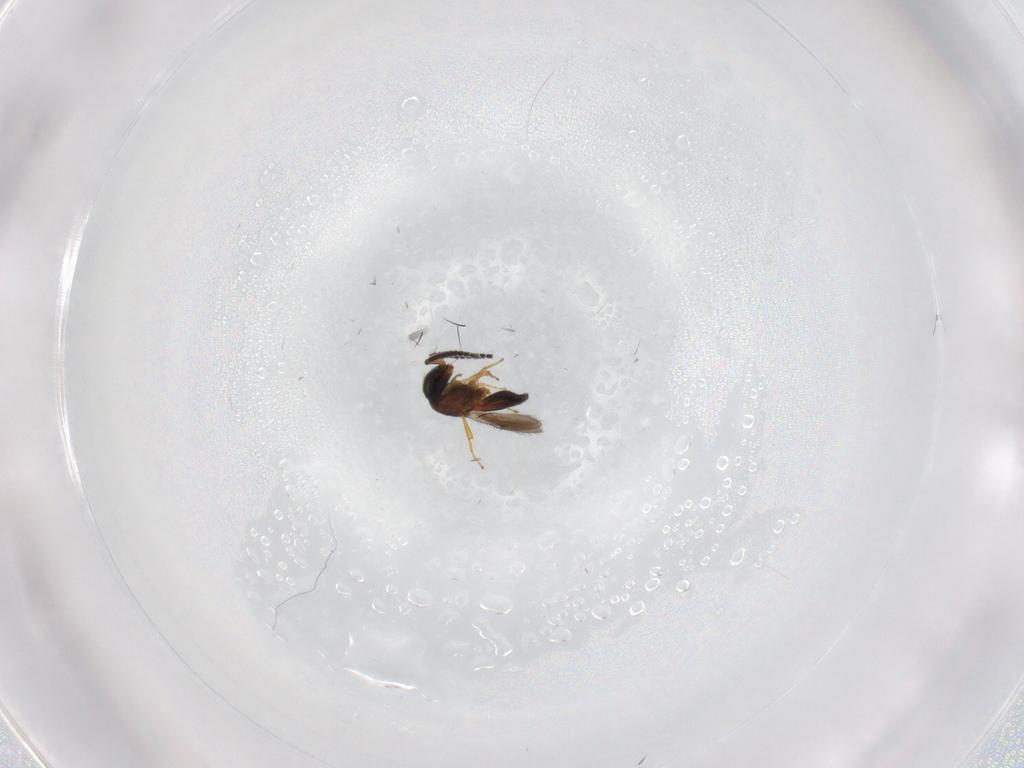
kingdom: Animalia
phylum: Arthropoda
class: Insecta
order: Hymenoptera
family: Scelionidae
